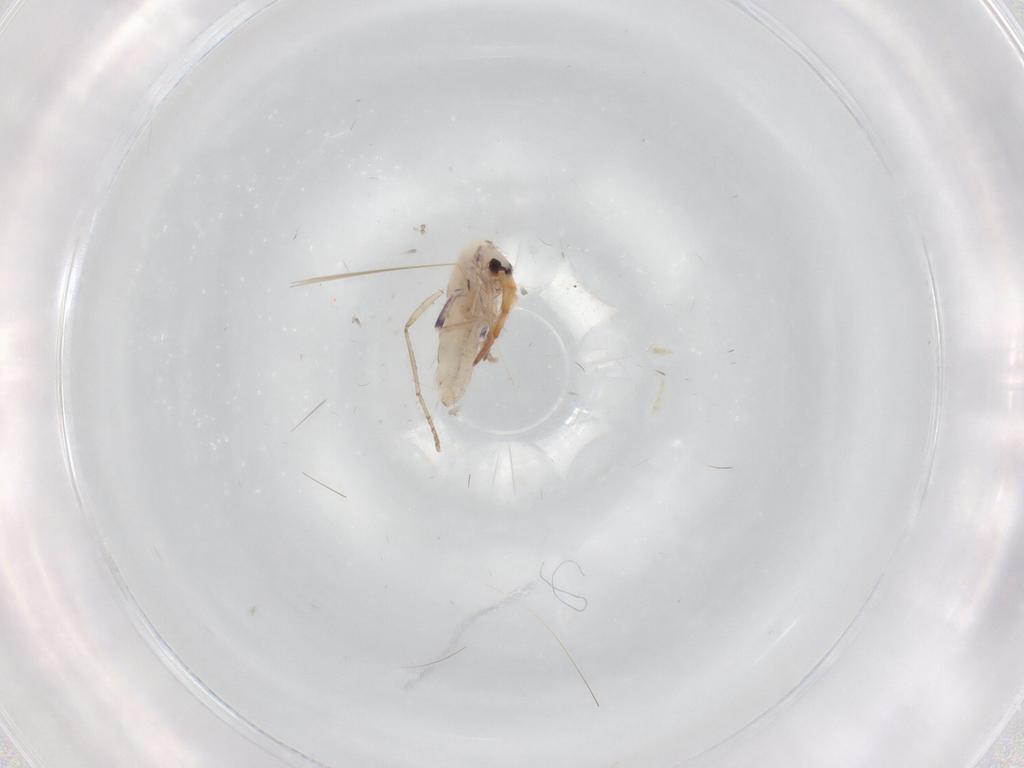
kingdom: Animalia
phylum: Arthropoda
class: Insecta
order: Diptera
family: Cecidomyiidae
